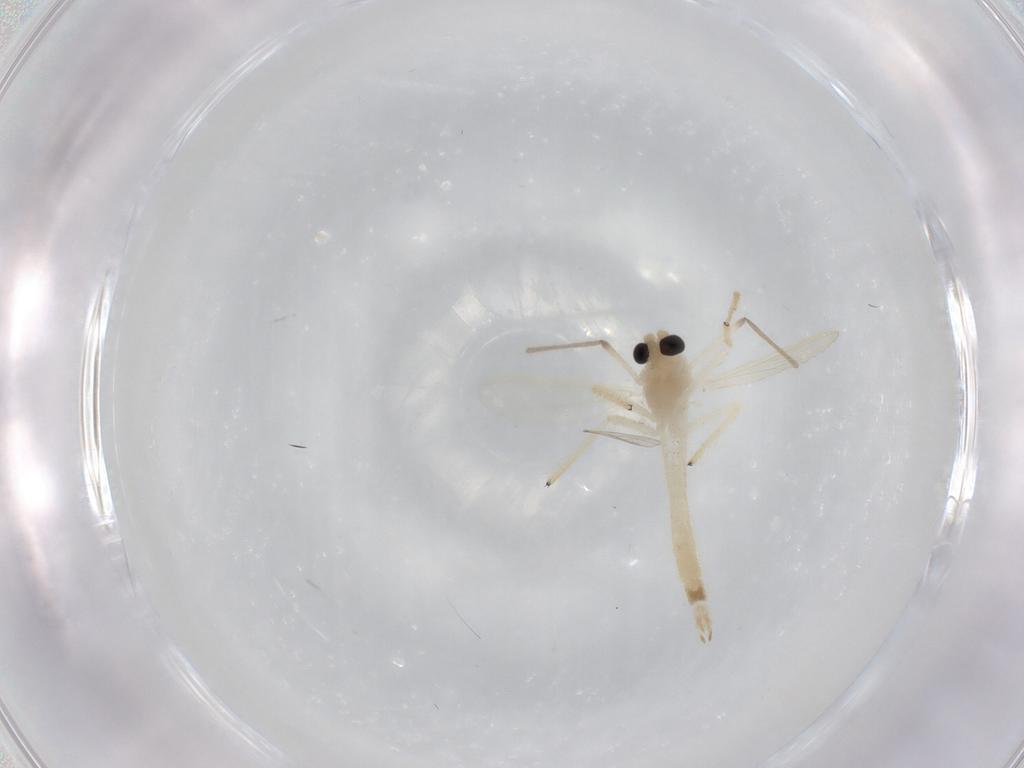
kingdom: Animalia
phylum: Arthropoda
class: Insecta
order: Diptera
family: Chironomidae
